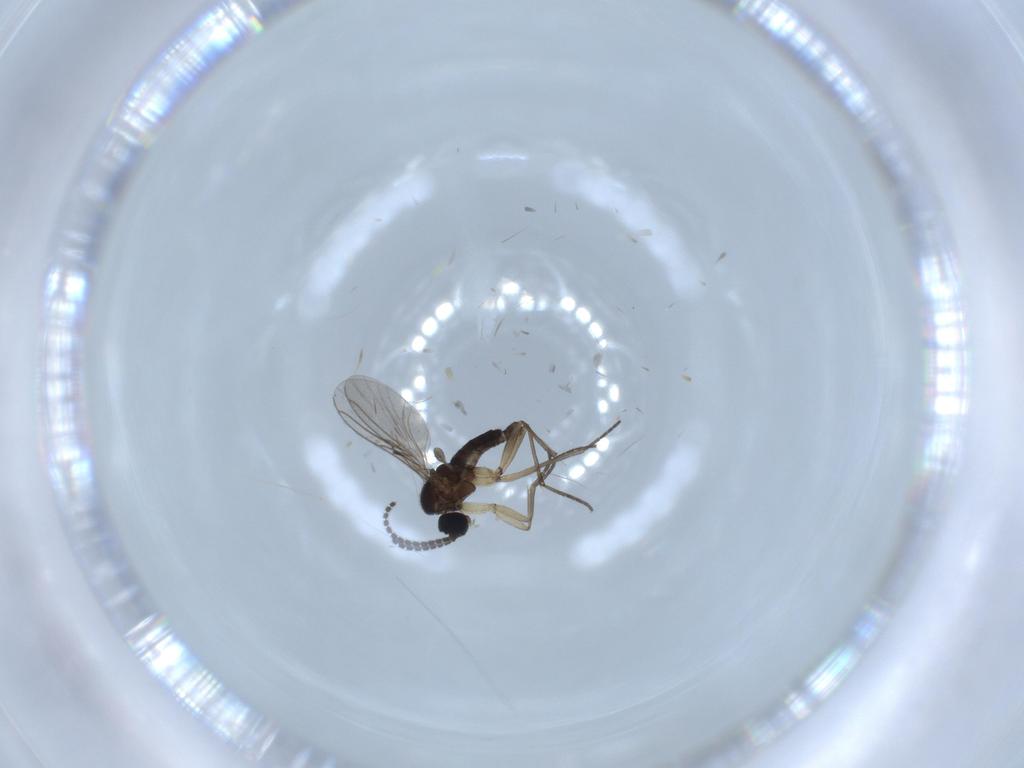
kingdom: Animalia
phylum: Arthropoda
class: Insecta
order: Diptera
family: Sciaridae
